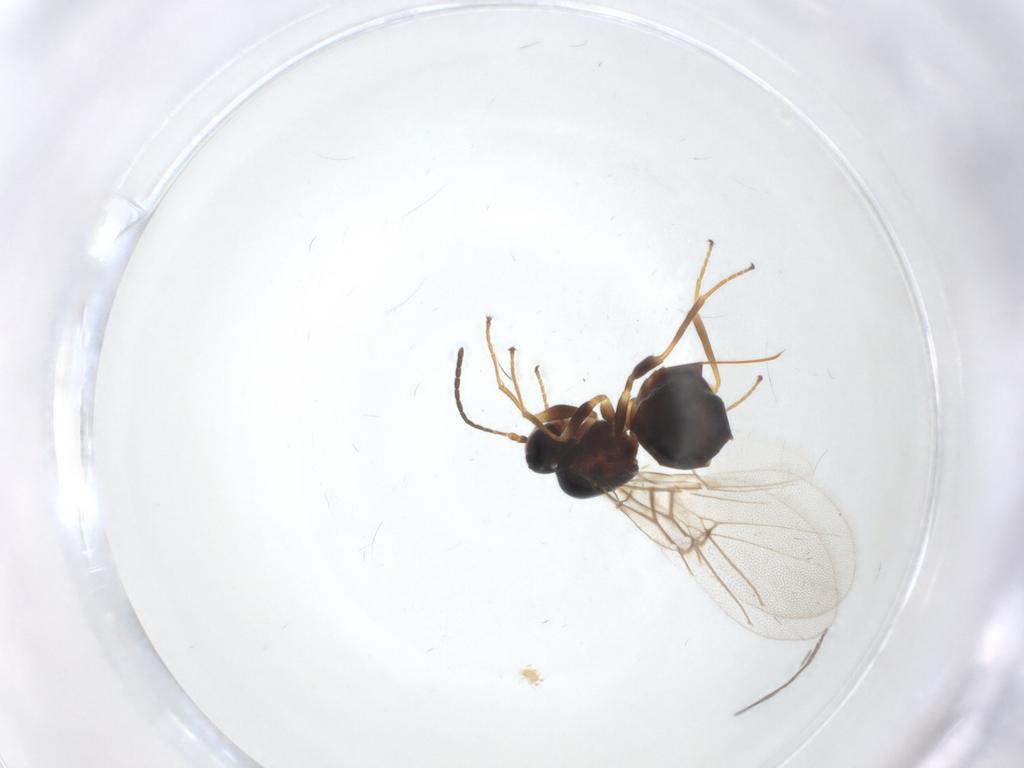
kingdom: Animalia
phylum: Arthropoda
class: Insecta
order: Hymenoptera
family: Cynipidae
